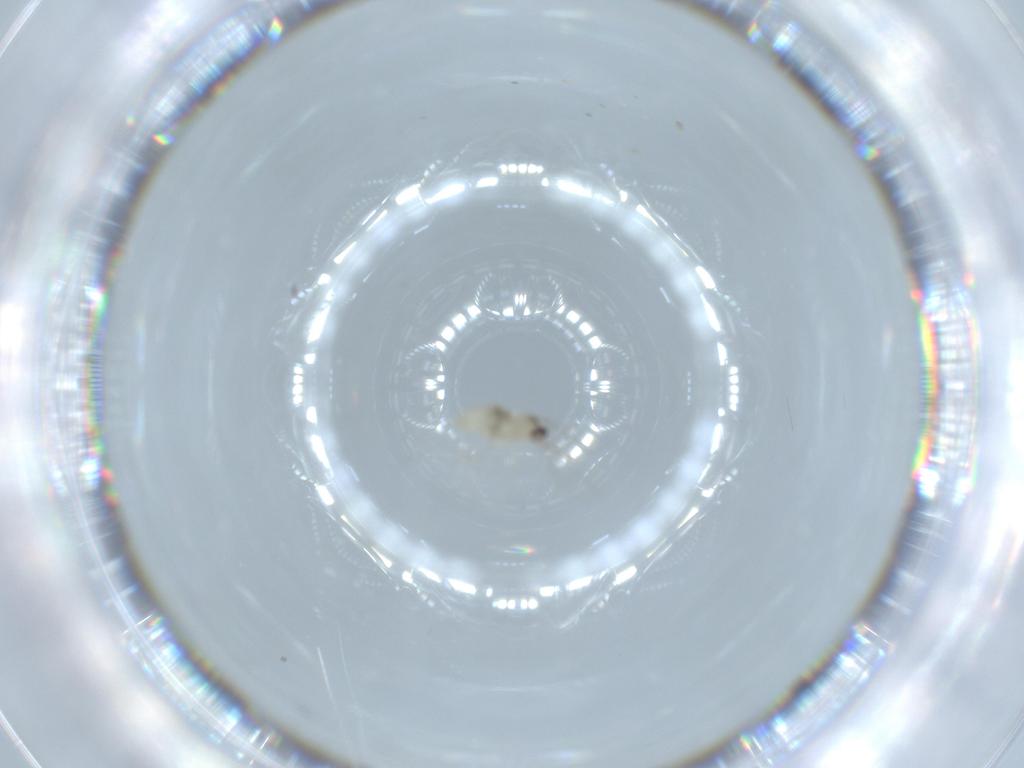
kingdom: Animalia
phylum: Arthropoda
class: Insecta
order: Diptera
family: Cecidomyiidae
